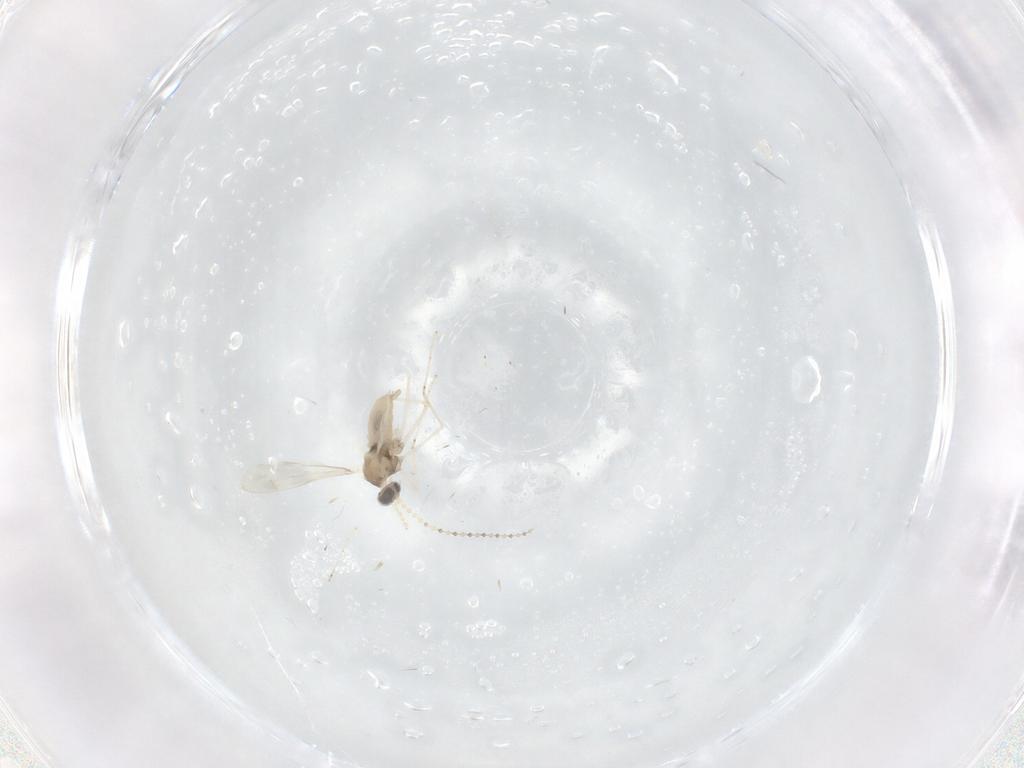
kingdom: Animalia
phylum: Arthropoda
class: Insecta
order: Diptera
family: Cecidomyiidae
